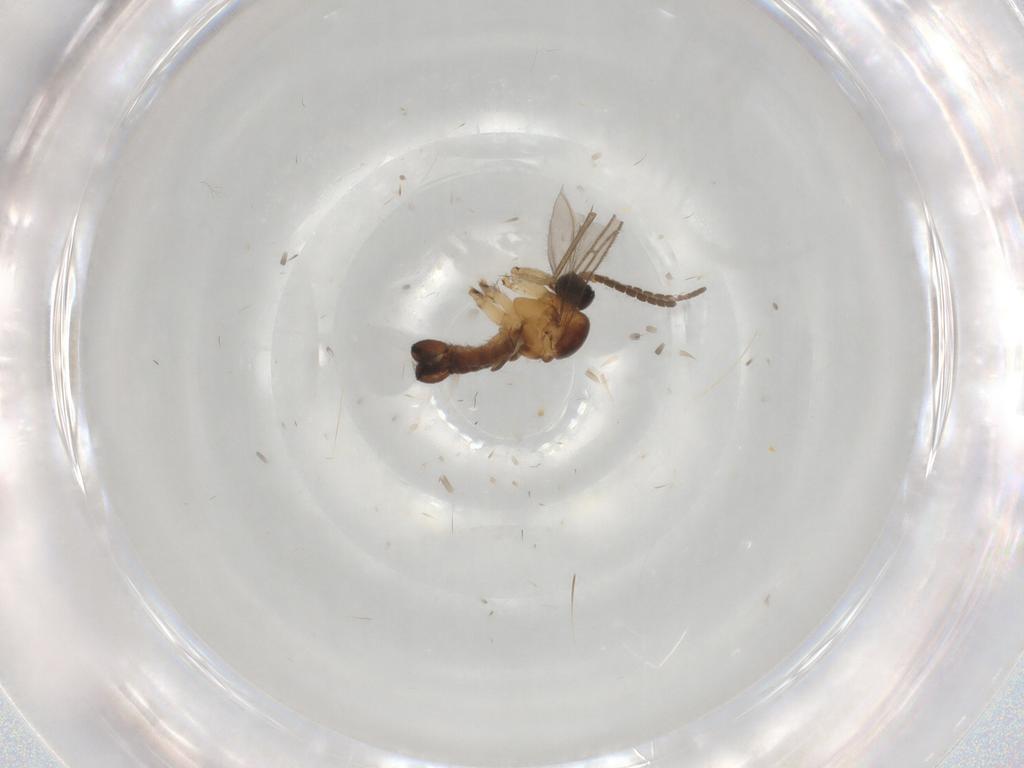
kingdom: Animalia
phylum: Arthropoda
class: Insecta
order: Diptera
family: Sciaridae
